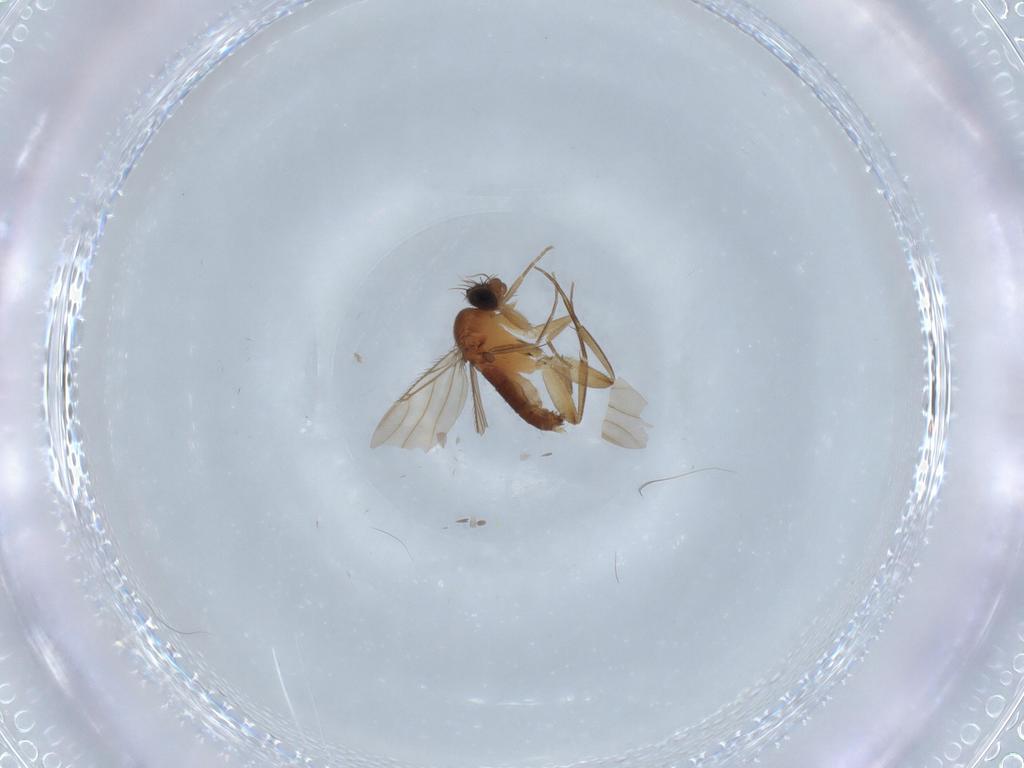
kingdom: Animalia
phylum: Arthropoda
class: Insecta
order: Diptera
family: Phoridae
